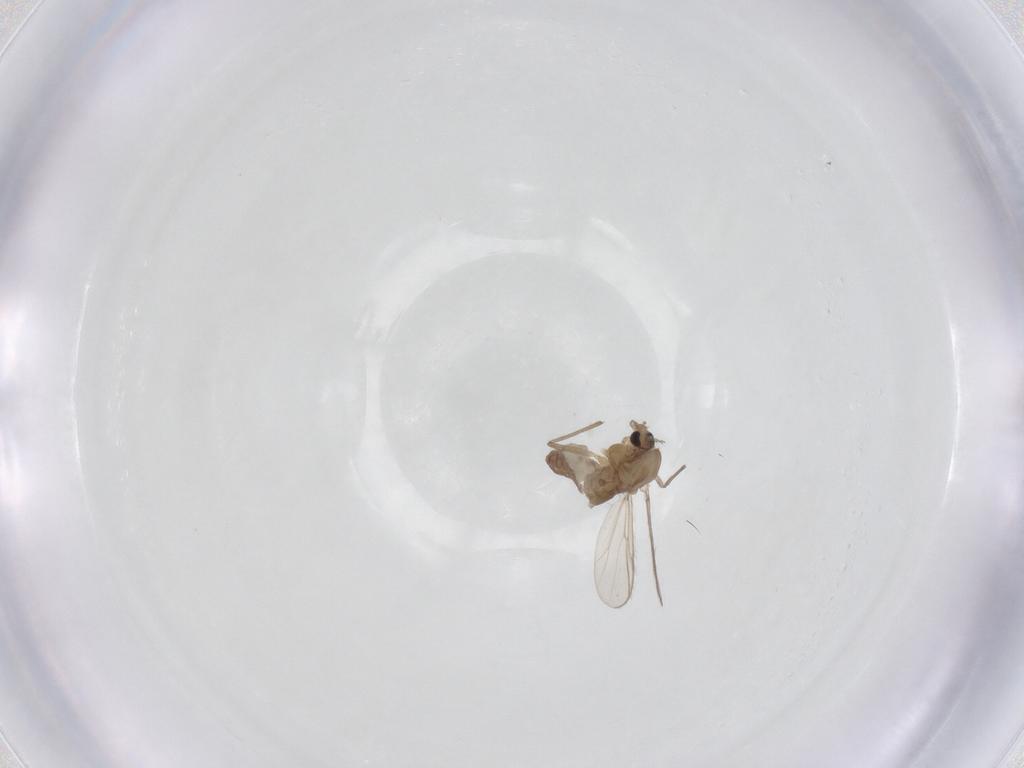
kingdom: Animalia
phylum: Arthropoda
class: Insecta
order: Diptera
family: Chironomidae
